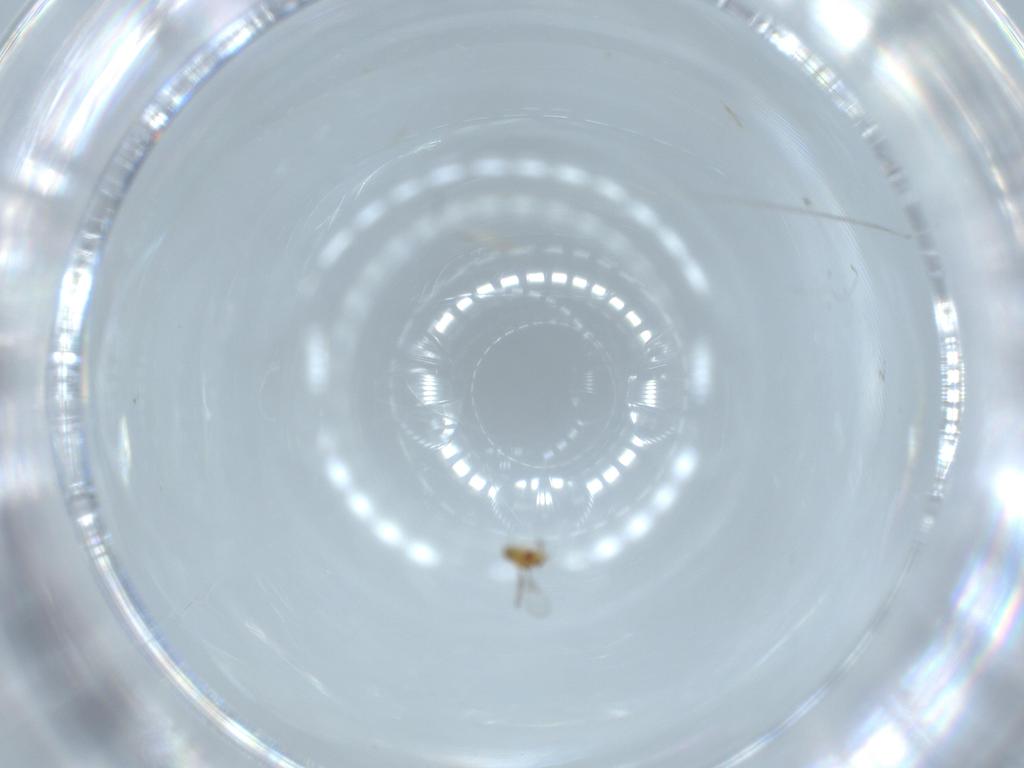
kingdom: Animalia
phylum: Arthropoda
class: Insecta
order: Hymenoptera
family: Trichogrammatidae
